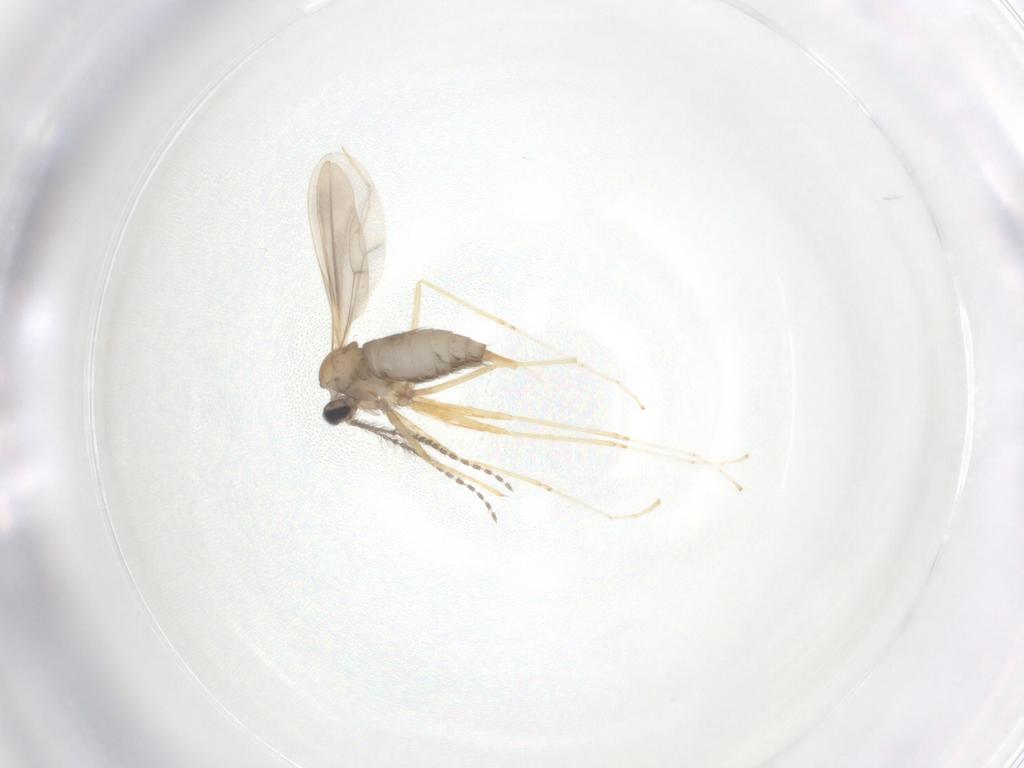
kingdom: Animalia
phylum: Arthropoda
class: Insecta
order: Diptera
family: Cecidomyiidae
